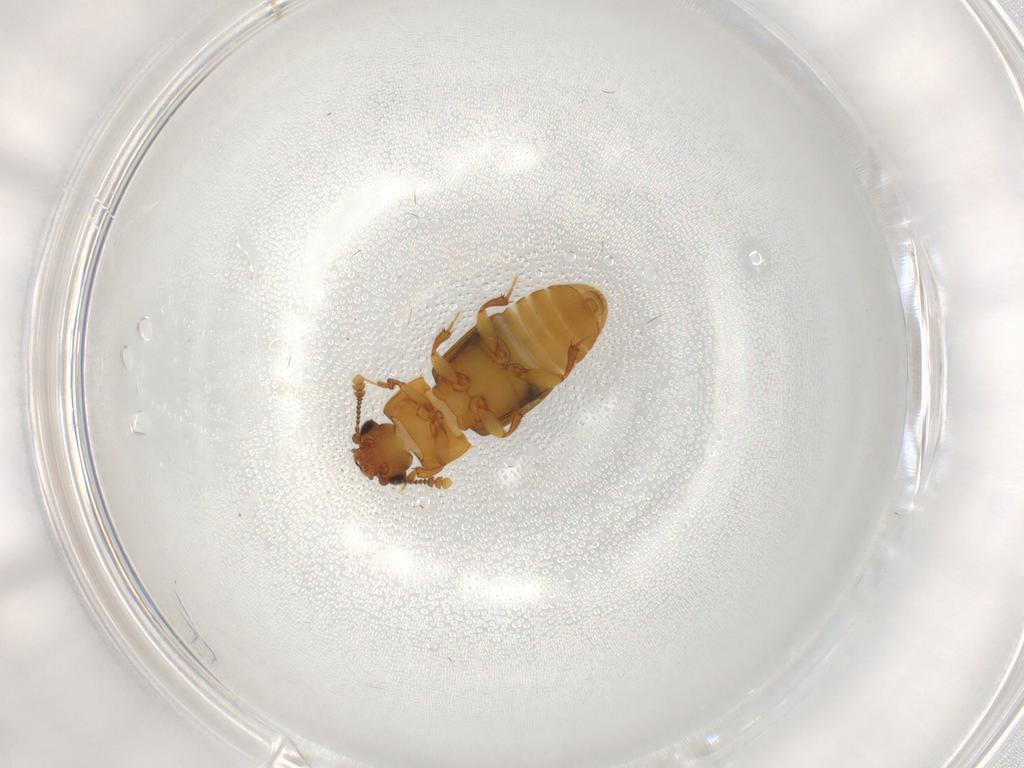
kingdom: Animalia
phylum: Arthropoda
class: Insecta
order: Coleoptera
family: Nitidulidae
